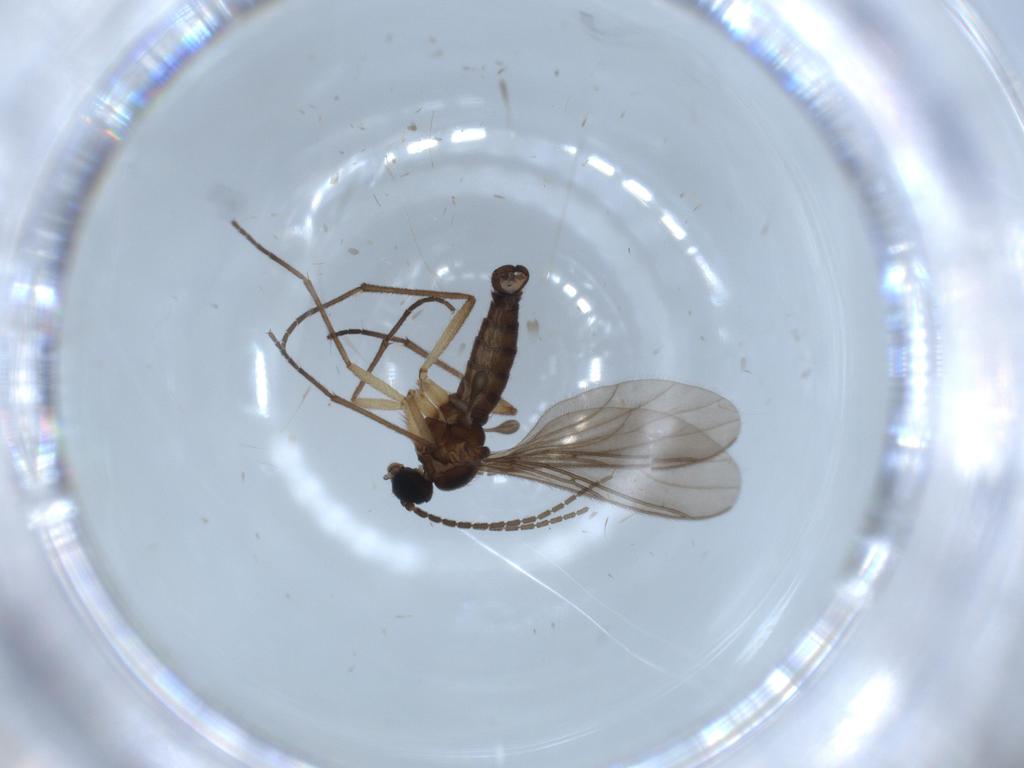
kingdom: Animalia
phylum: Arthropoda
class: Insecta
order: Diptera
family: Sciaridae
